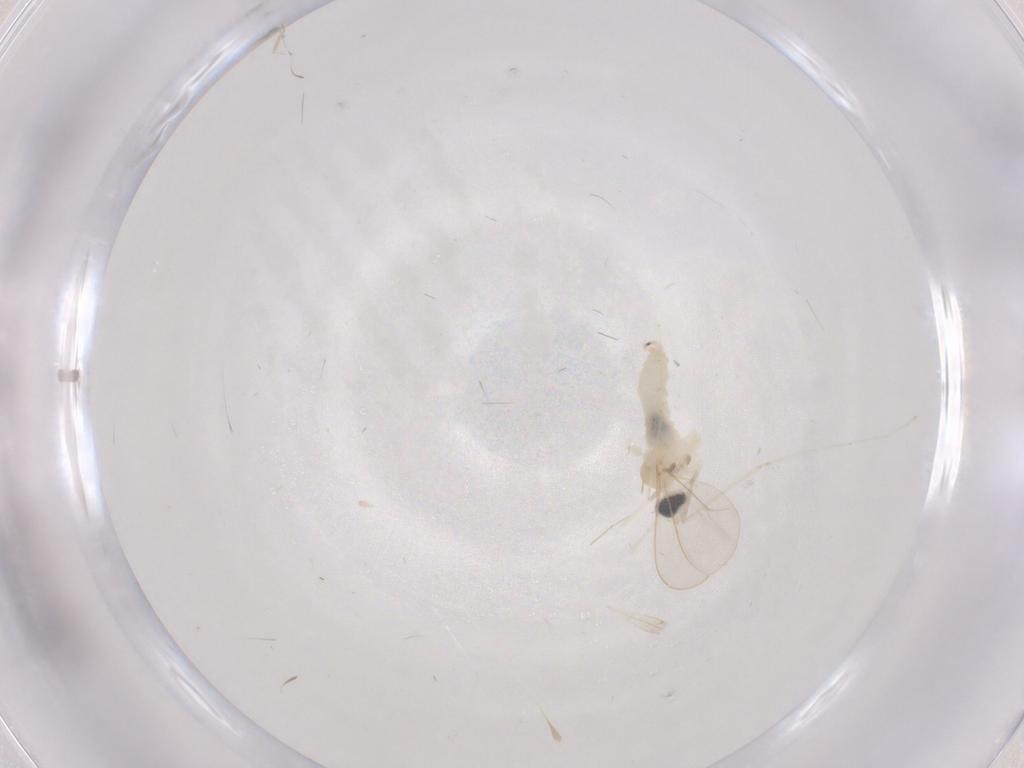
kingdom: Animalia
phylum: Arthropoda
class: Insecta
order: Diptera
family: Cecidomyiidae
